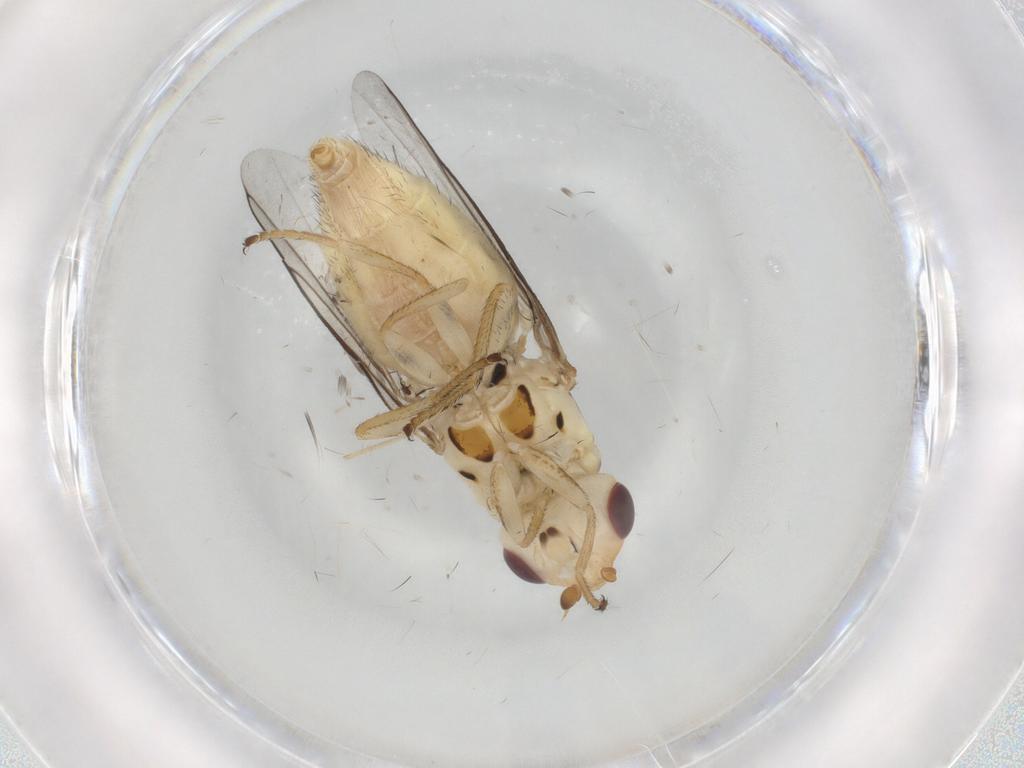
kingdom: Animalia
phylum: Arthropoda
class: Insecta
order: Diptera
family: Chloropidae
